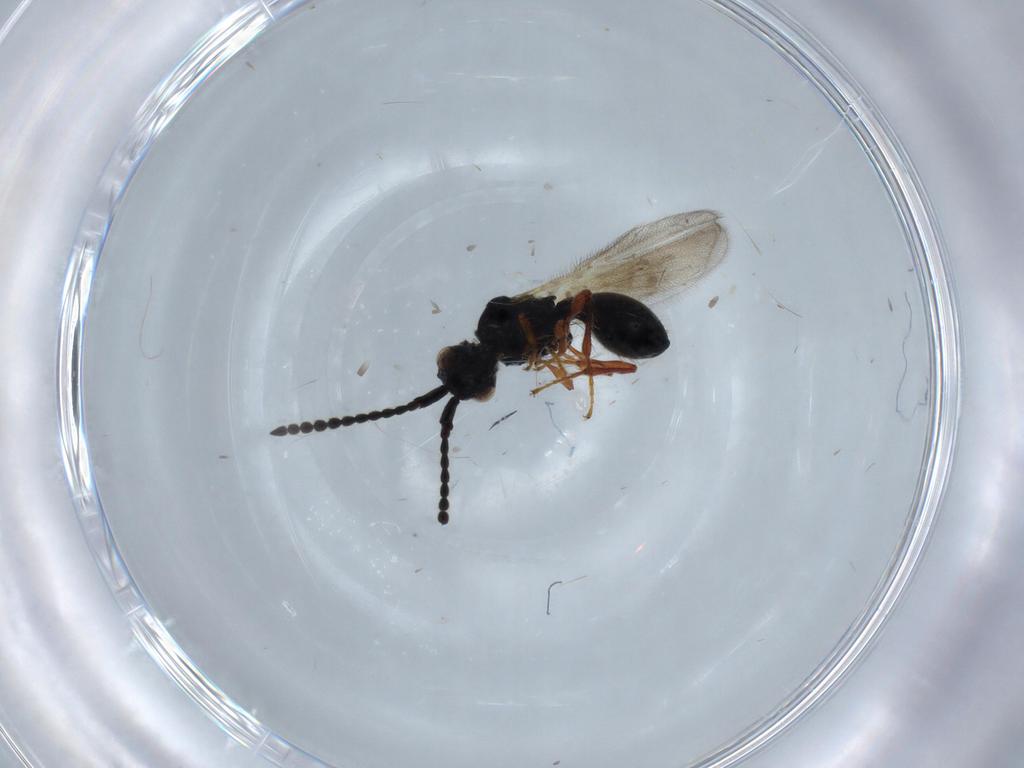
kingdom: Animalia
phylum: Arthropoda
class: Insecta
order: Hymenoptera
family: Diapriidae
